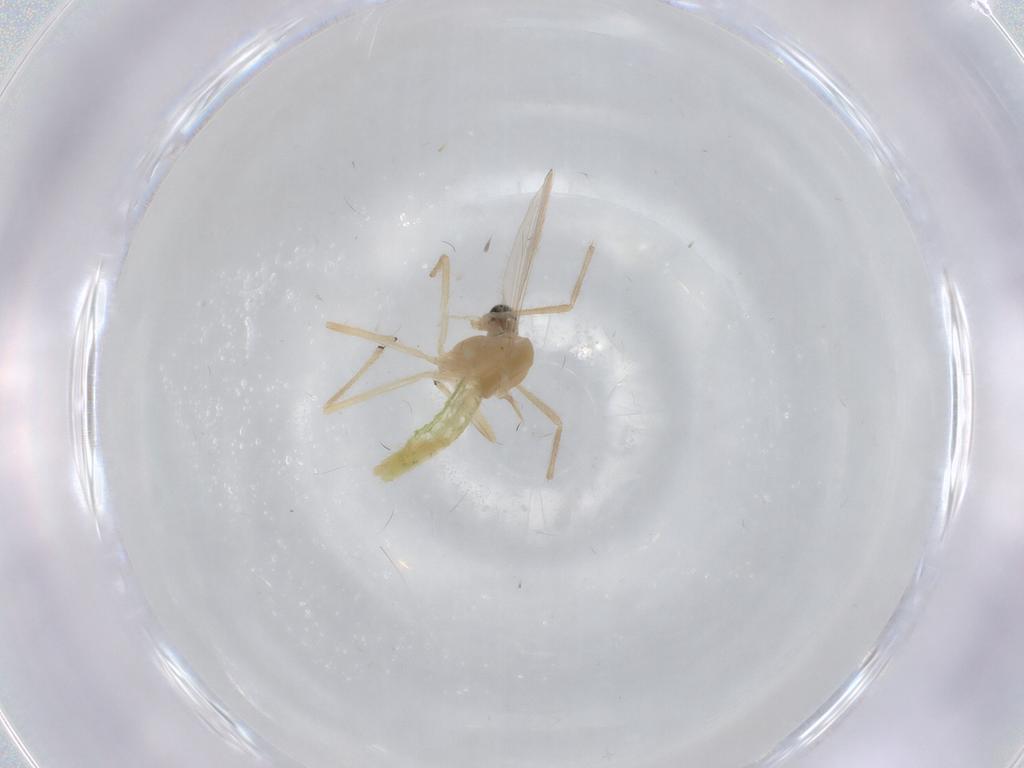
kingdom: Animalia
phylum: Arthropoda
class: Insecta
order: Diptera
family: Chironomidae
